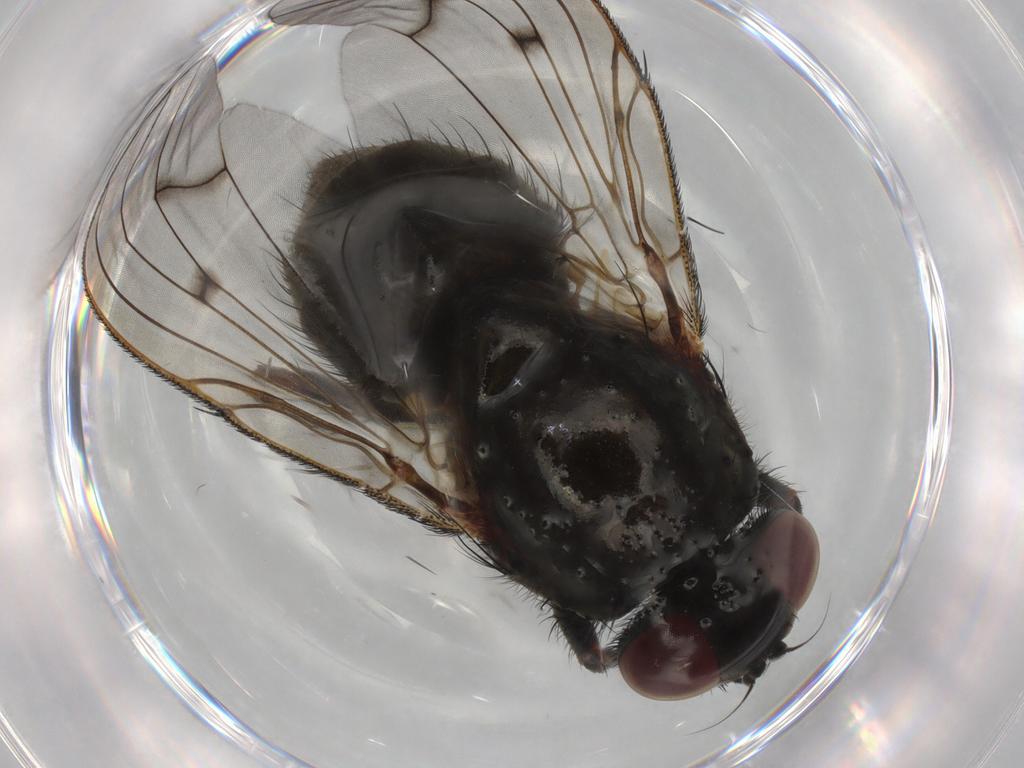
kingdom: Animalia
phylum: Arthropoda
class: Insecta
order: Diptera
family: Muscidae
